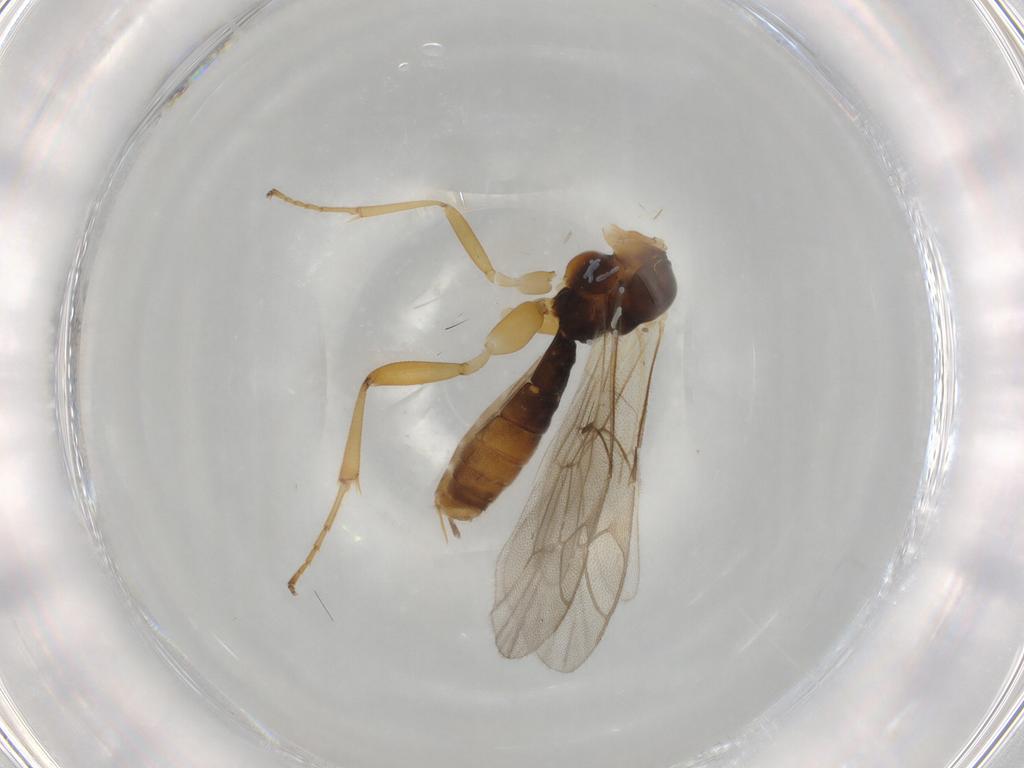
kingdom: Animalia
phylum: Arthropoda
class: Insecta
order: Hymenoptera
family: Ichneumonidae
